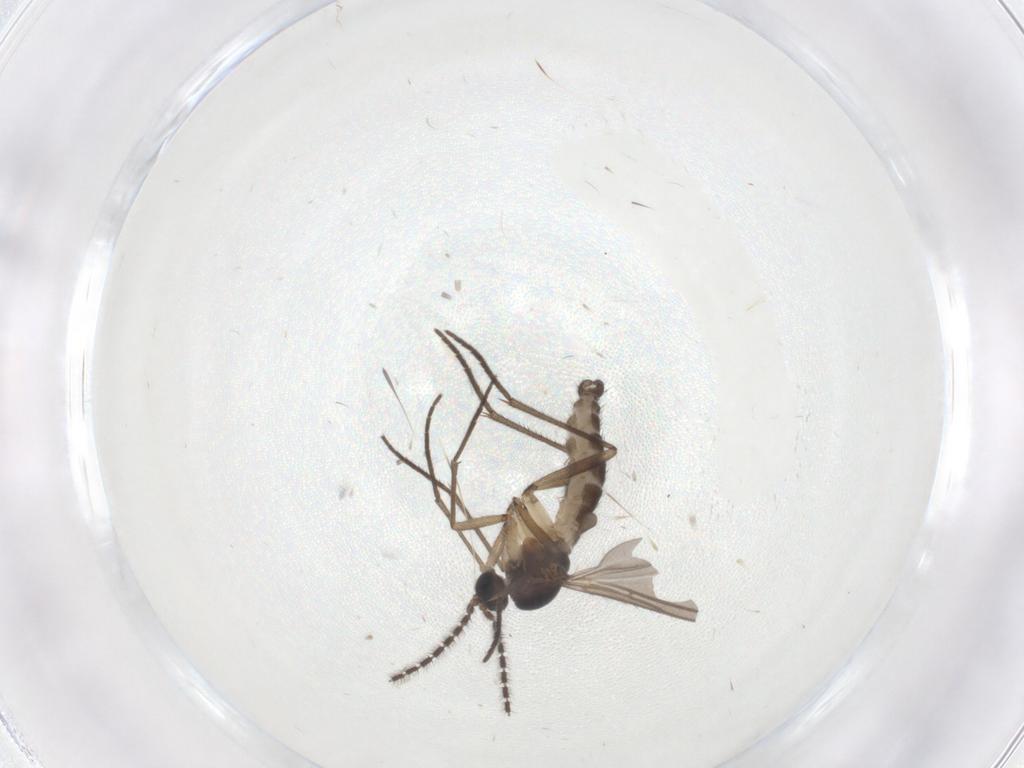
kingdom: Animalia
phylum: Arthropoda
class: Insecta
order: Diptera
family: Sciaridae
